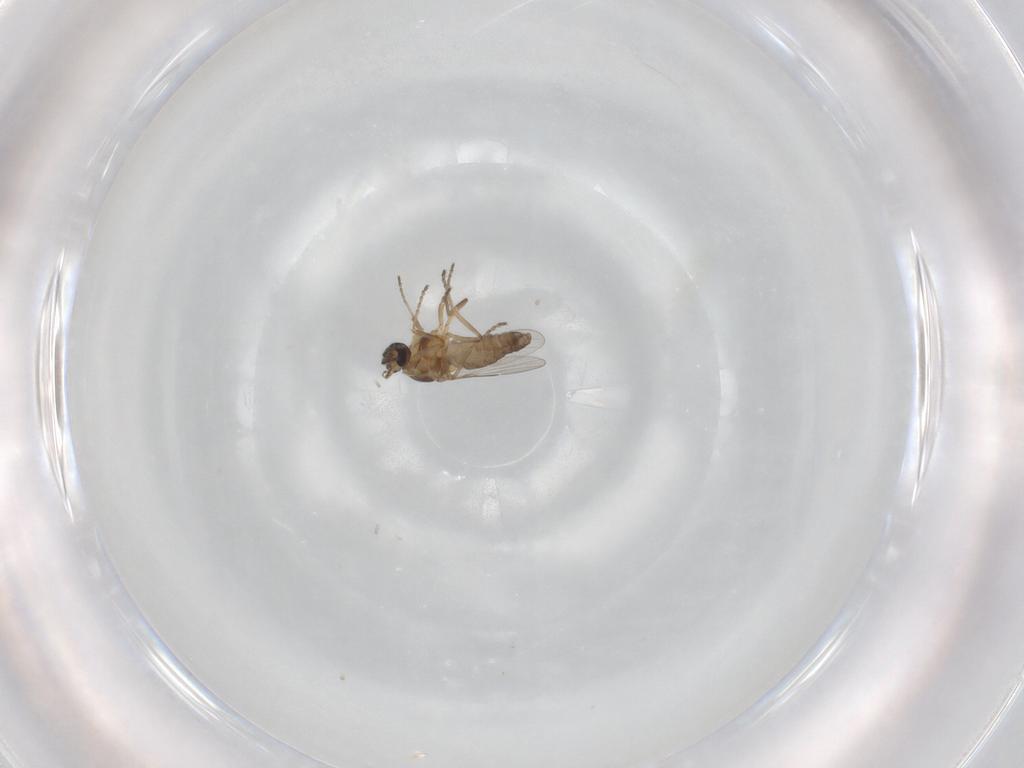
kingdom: Animalia
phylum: Arthropoda
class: Insecta
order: Diptera
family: Ceratopogonidae
